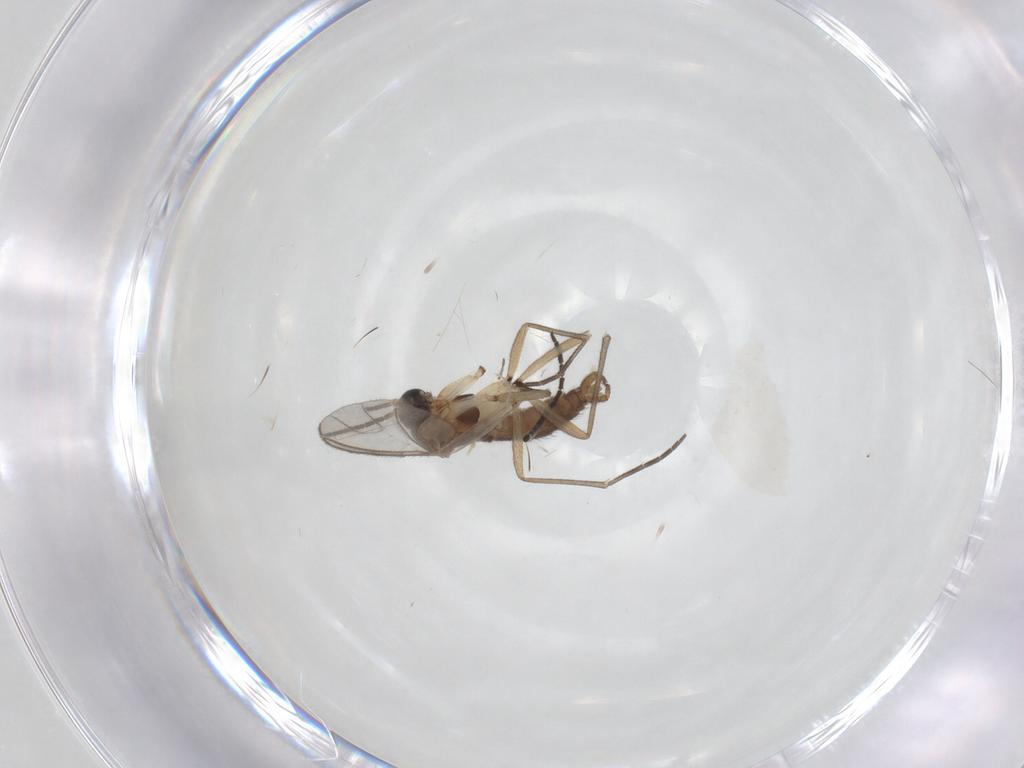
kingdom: Animalia
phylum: Arthropoda
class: Insecta
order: Diptera
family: Sciaridae
